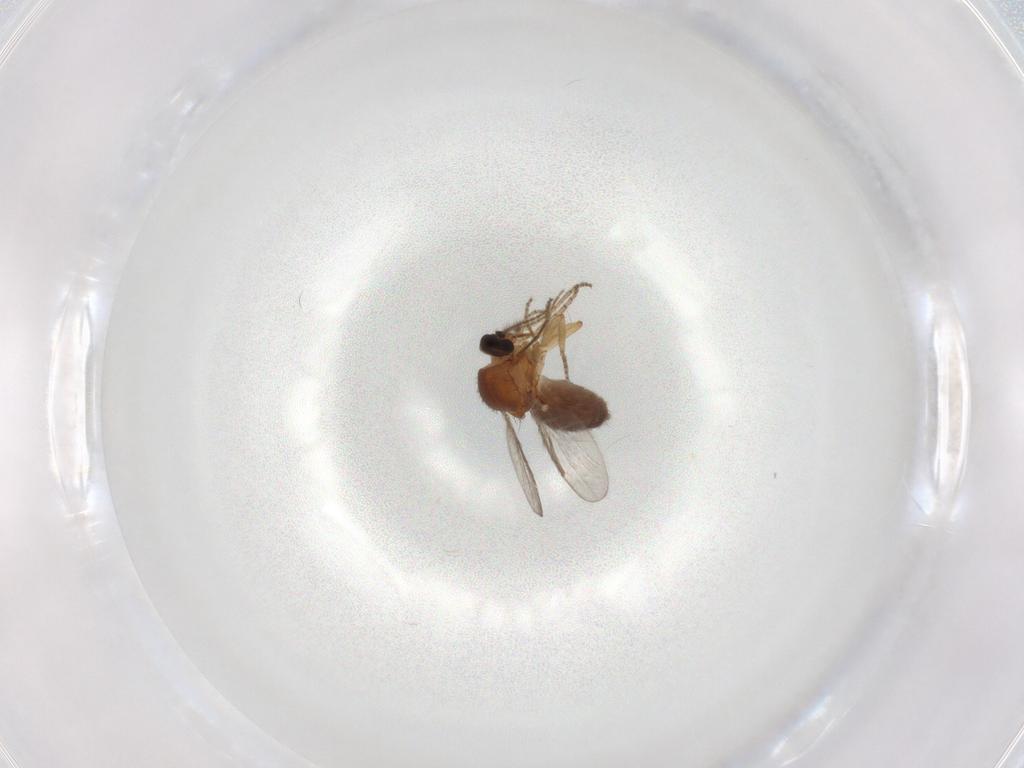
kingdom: Animalia
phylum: Arthropoda
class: Insecta
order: Diptera
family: Ceratopogonidae
